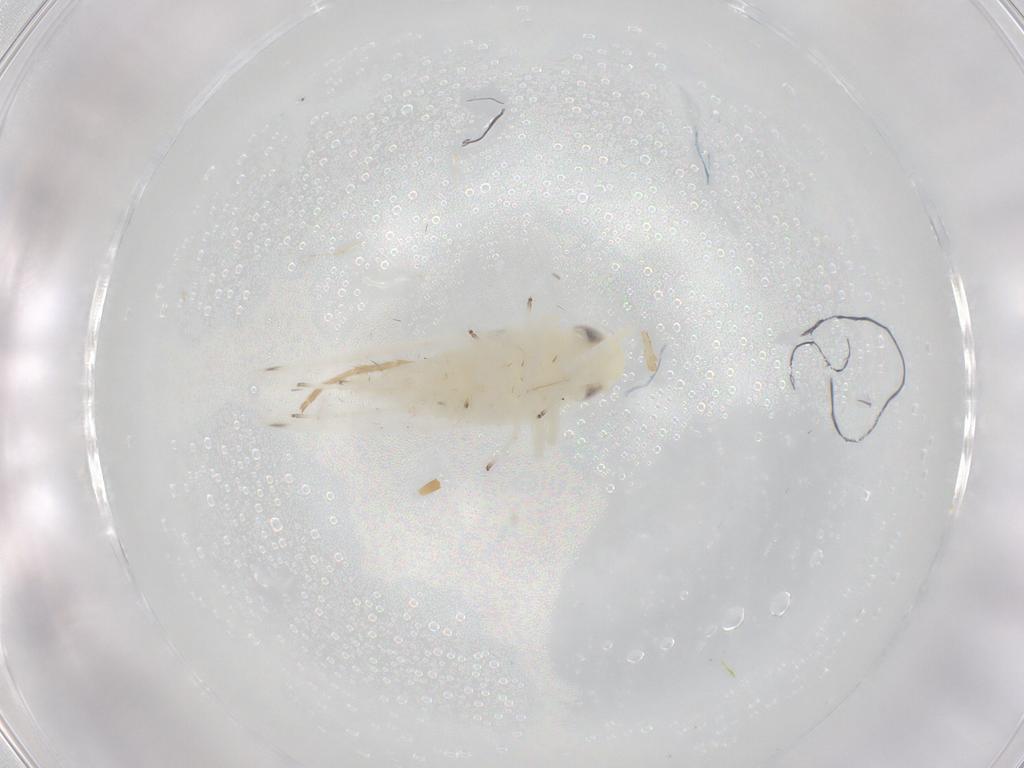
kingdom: Animalia
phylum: Arthropoda
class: Insecta
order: Hemiptera
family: Cicadellidae
